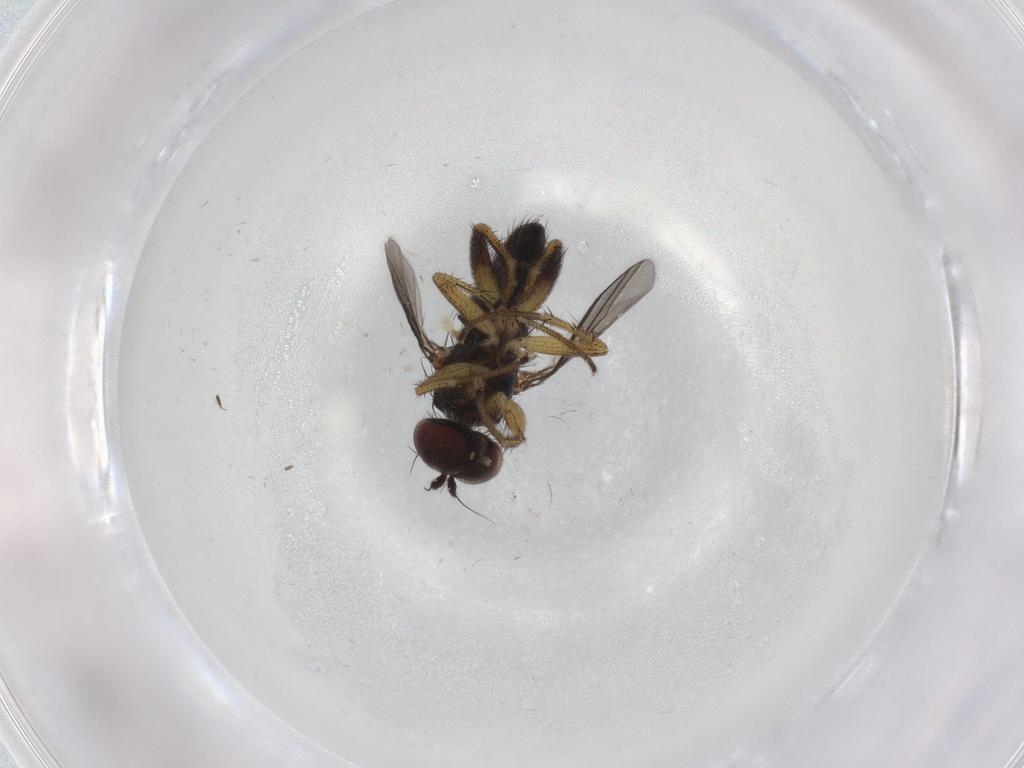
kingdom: Animalia
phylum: Arthropoda
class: Insecta
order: Diptera
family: Dolichopodidae
